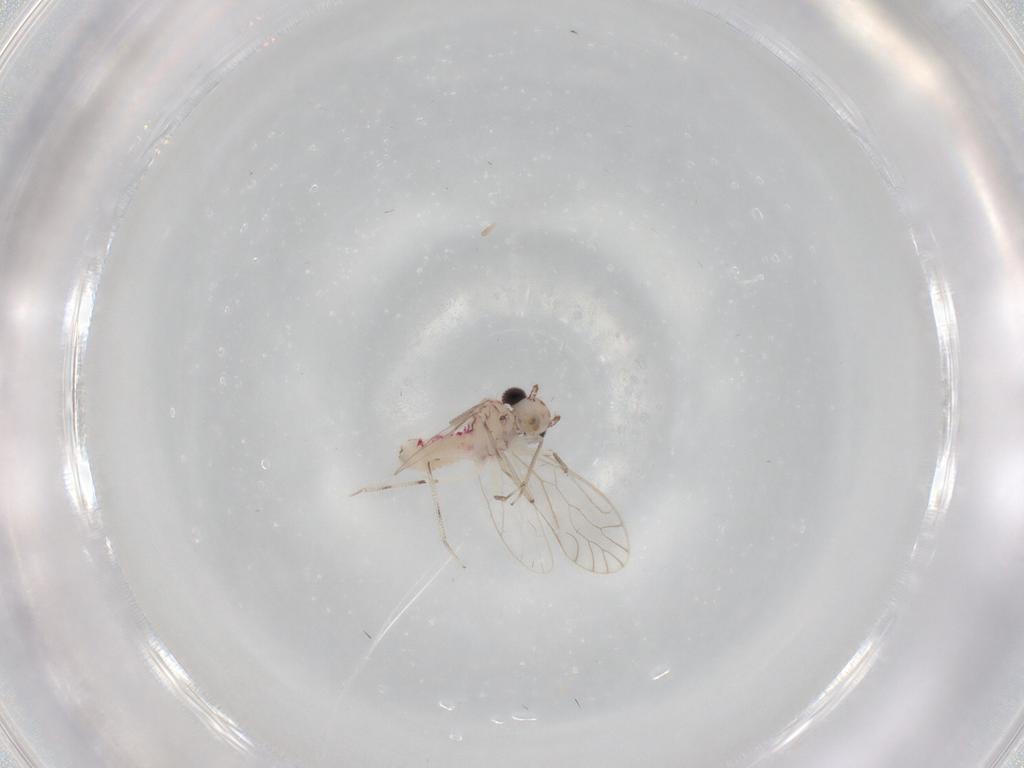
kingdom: Animalia
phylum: Arthropoda
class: Insecta
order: Psocodea
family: Caeciliusidae
